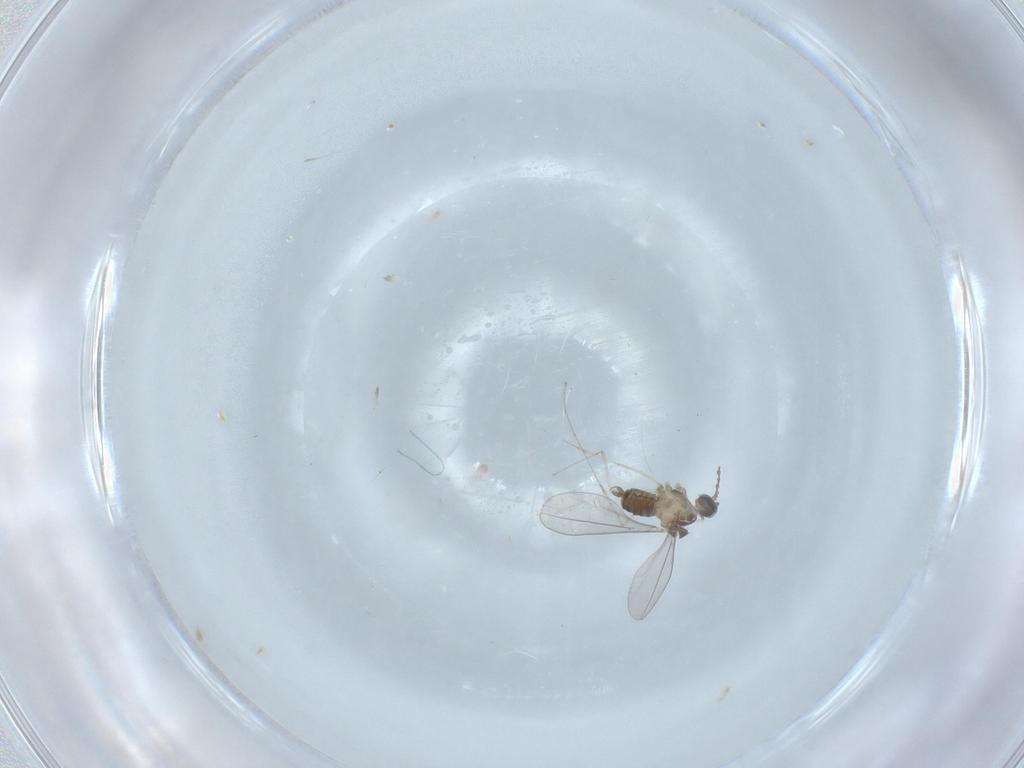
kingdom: Animalia
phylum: Arthropoda
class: Insecta
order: Diptera
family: Cecidomyiidae
